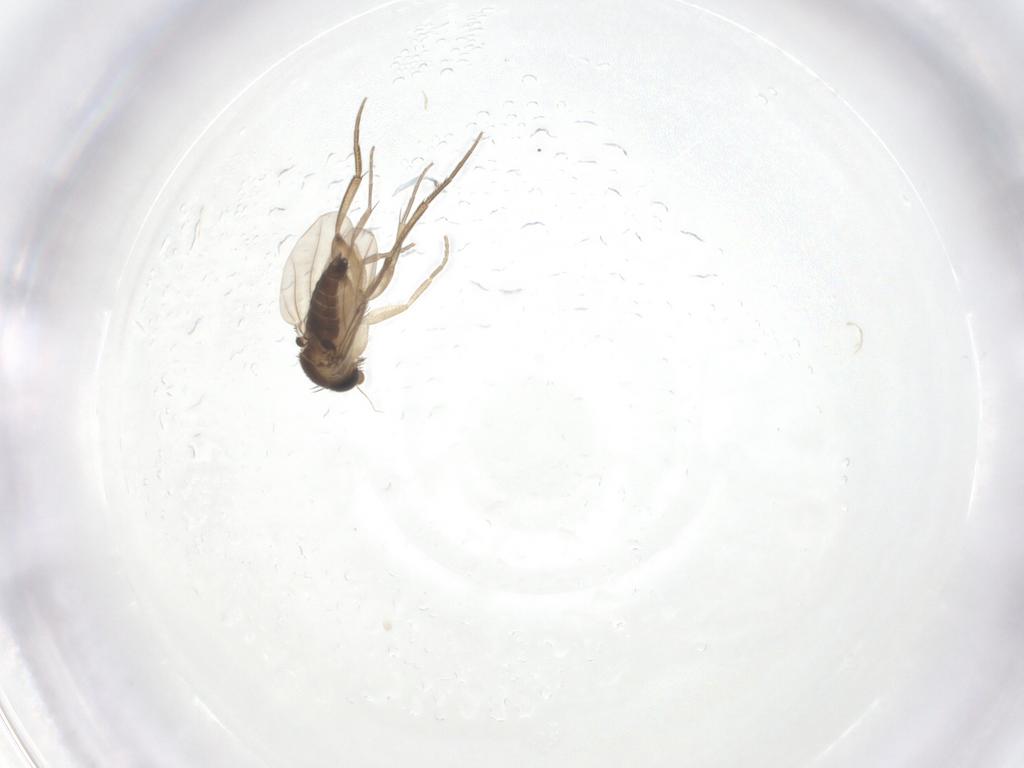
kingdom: Animalia
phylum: Arthropoda
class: Insecta
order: Diptera
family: Phoridae
